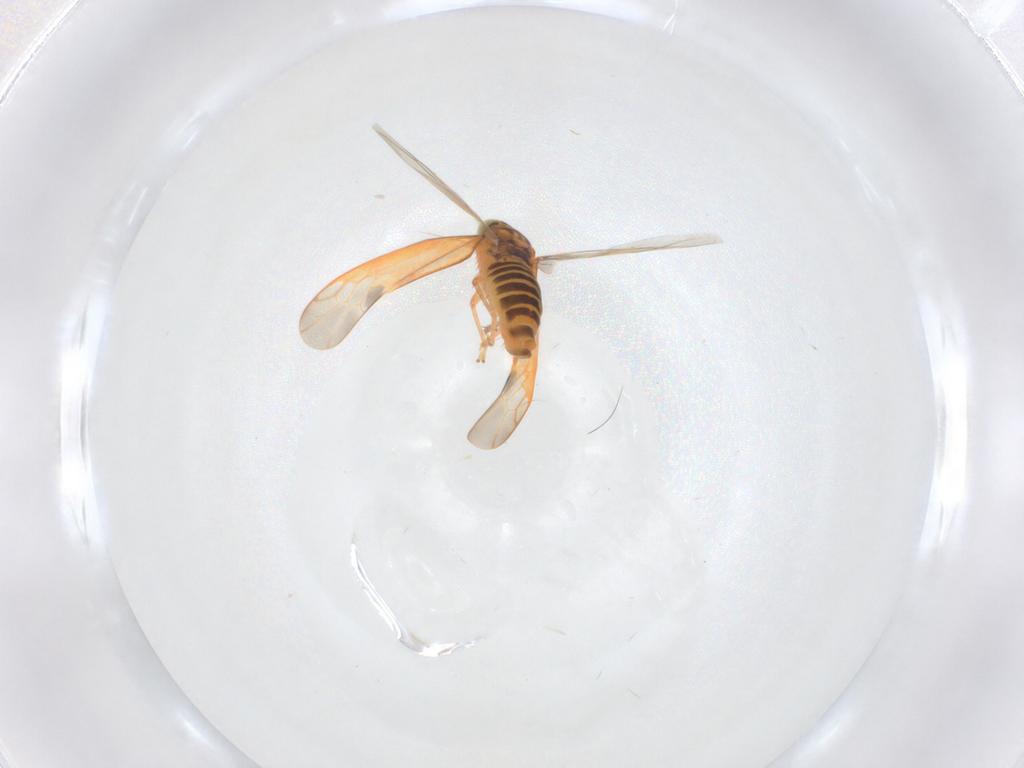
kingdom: Animalia
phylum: Arthropoda
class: Insecta
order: Hemiptera
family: Cicadellidae
